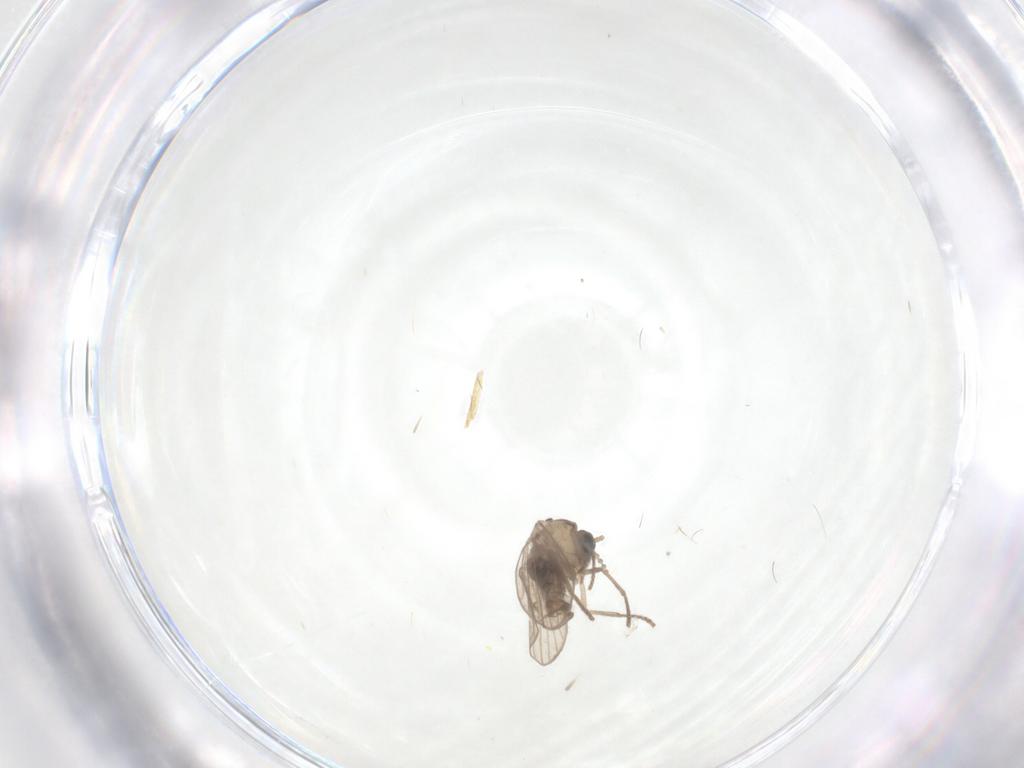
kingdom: Animalia
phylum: Arthropoda
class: Insecta
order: Diptera
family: Psychodidae
